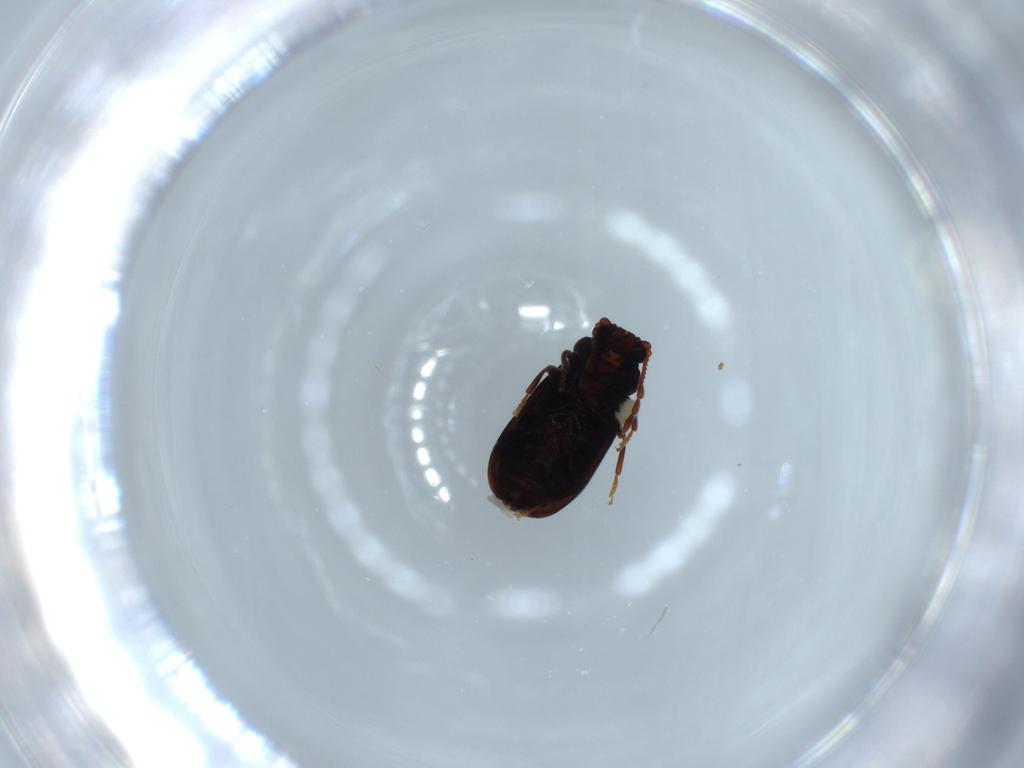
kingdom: Animalia
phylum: Arthropoda
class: Insecta
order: Coleoptera
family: Ptinidae
